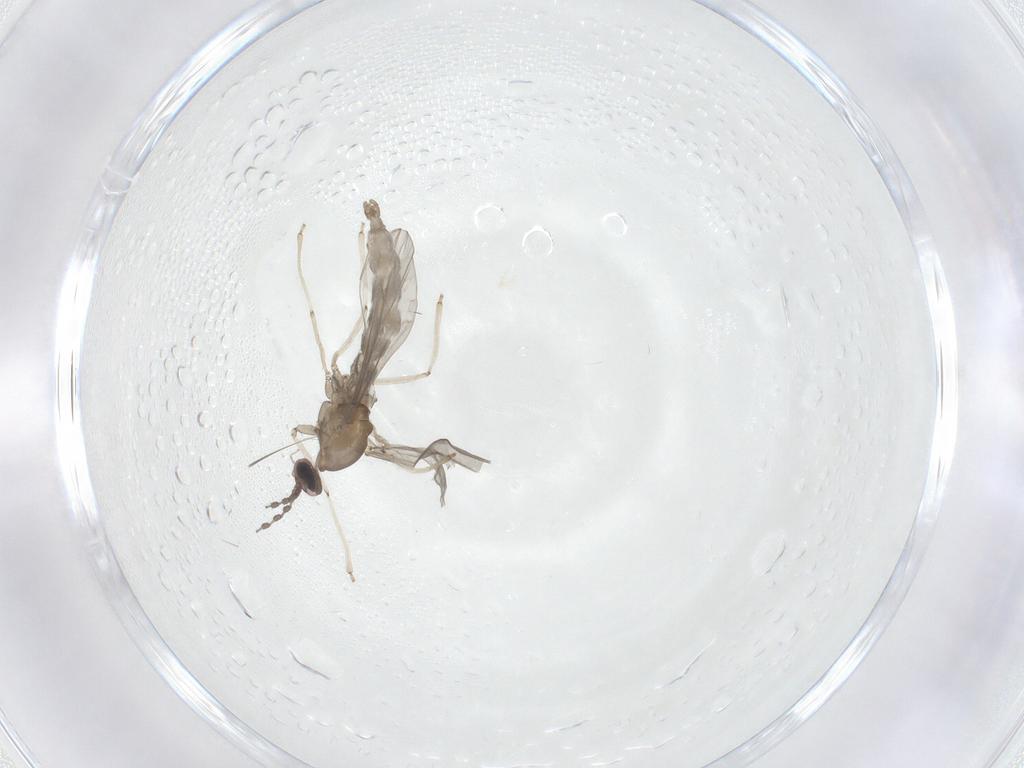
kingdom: Animalia
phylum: Arthropoda
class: Insecta
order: Diptera
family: Cecidomyiidae
